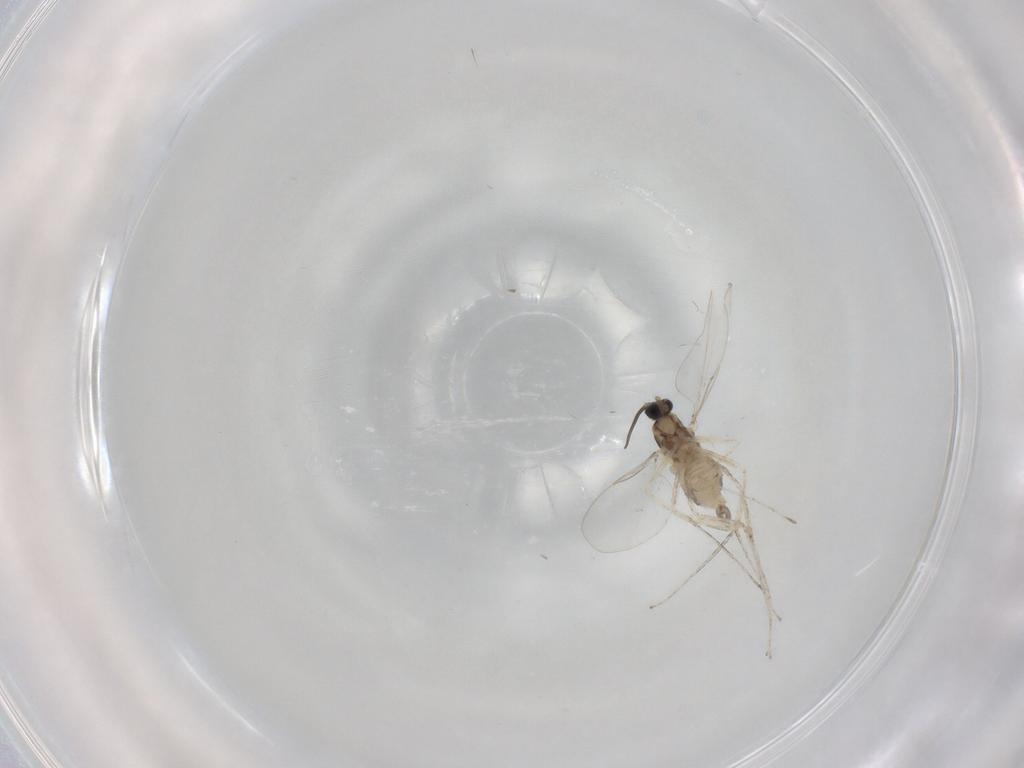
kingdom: Animalia
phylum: Arthropoda
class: Insecta
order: Diptera
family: Cecidomyiidae
